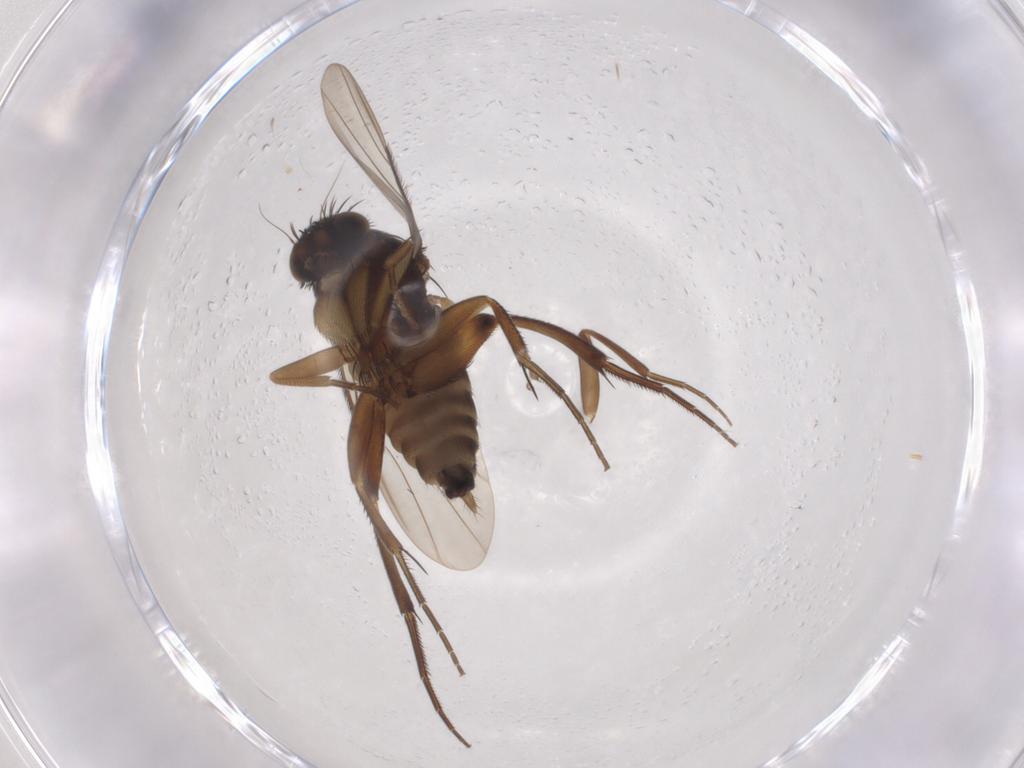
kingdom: Animalia
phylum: Arthropoda
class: Insecta
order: Diptera
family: Phoridae
